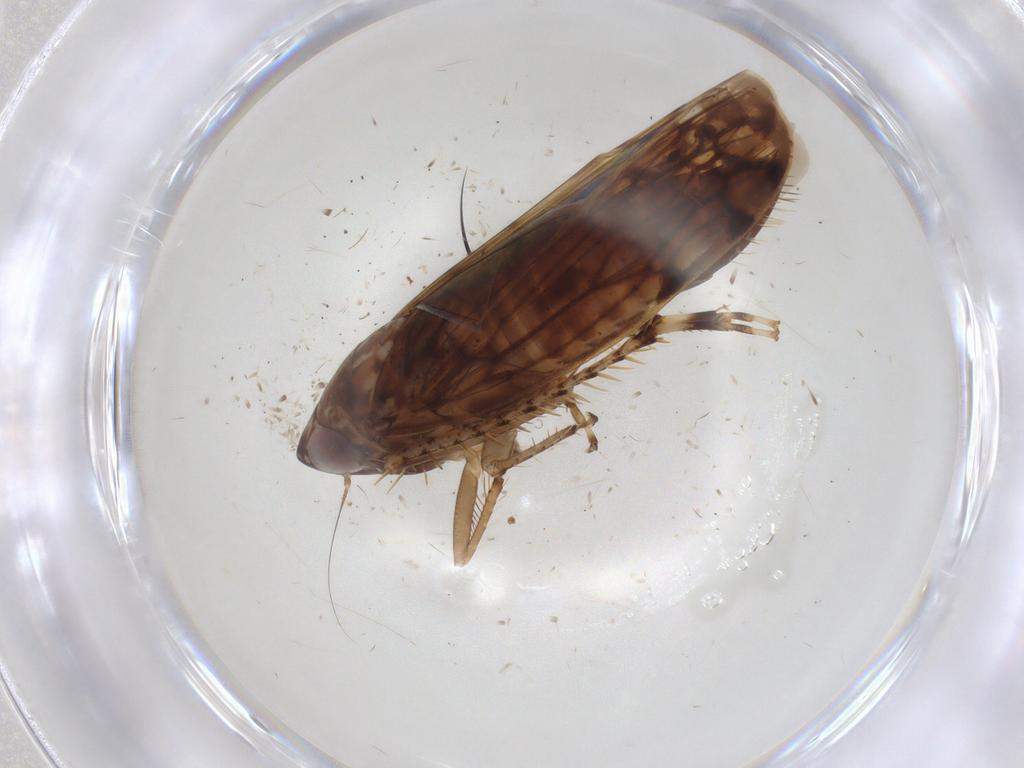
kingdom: Animalia
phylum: Arthropoda
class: Insecta
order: Hemiptera
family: Cicadellidae
